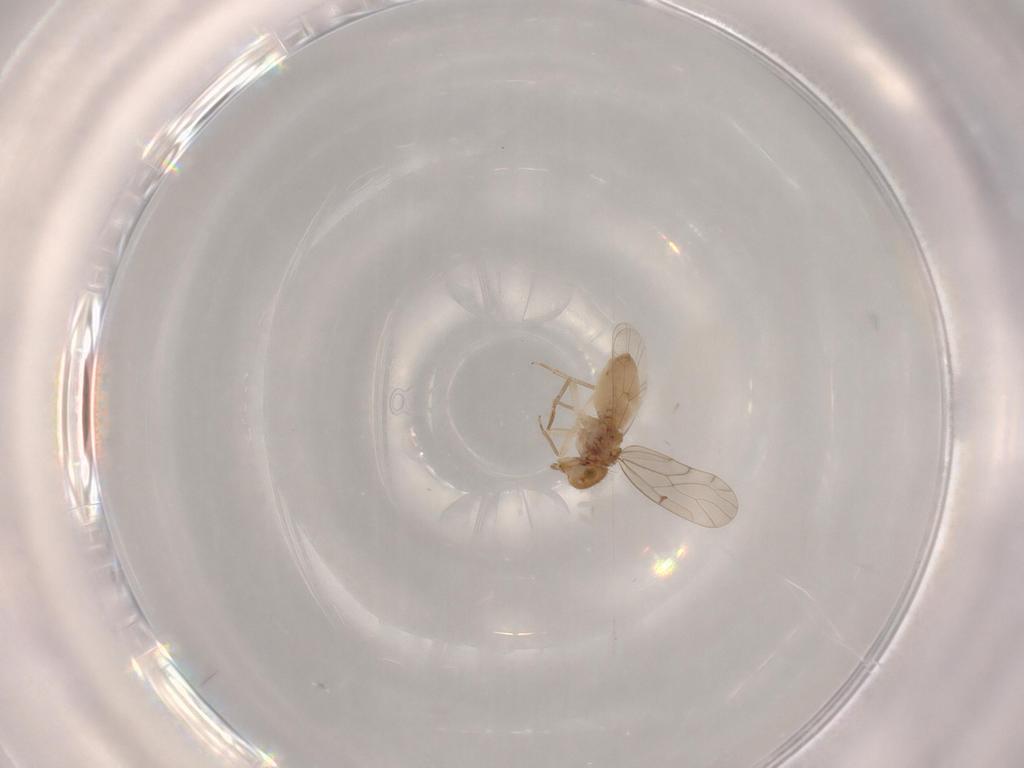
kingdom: Animalia
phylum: Arthropoda
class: Insecta
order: Psocodea
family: Ectopsocidae
